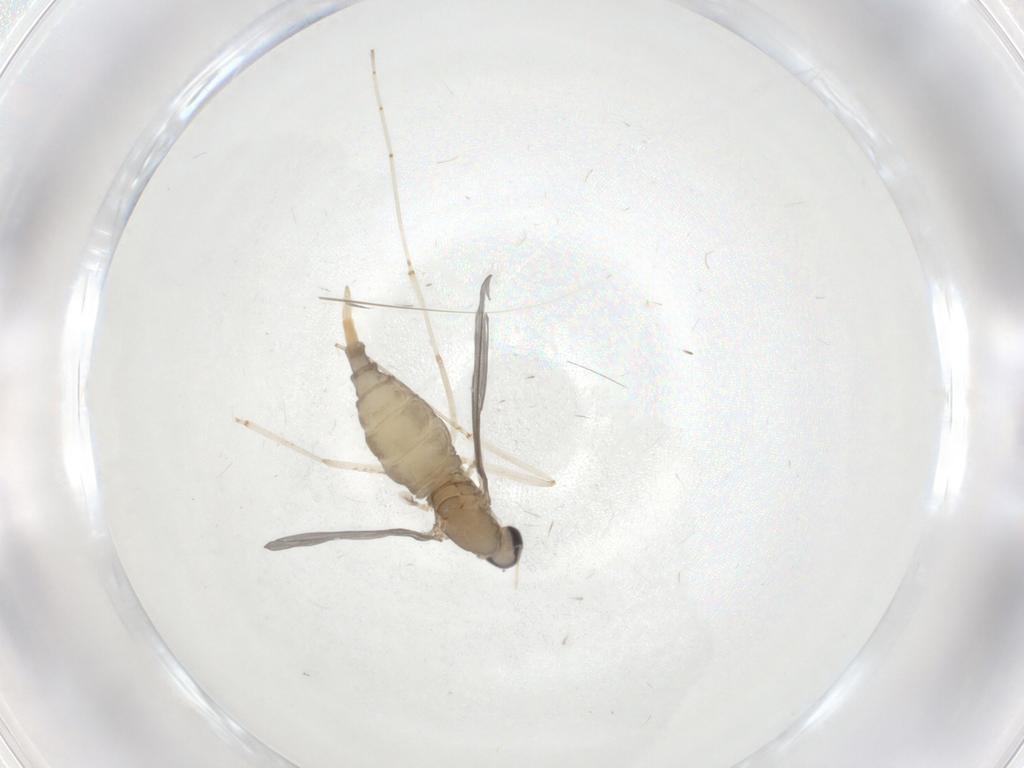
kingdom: Animalia
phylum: Arthropoda
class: Insecta
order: Diptera
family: Cecidomyiidae
